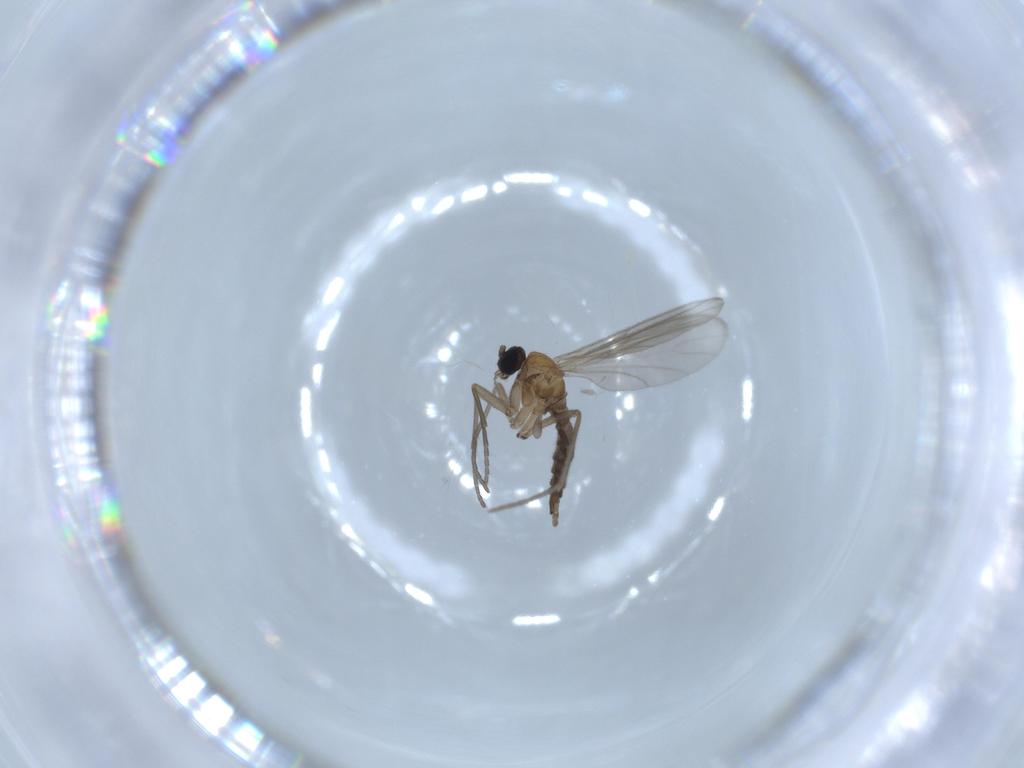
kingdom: Animalia
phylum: Arthropoda
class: Insecta
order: Diptera
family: Sciaridae
